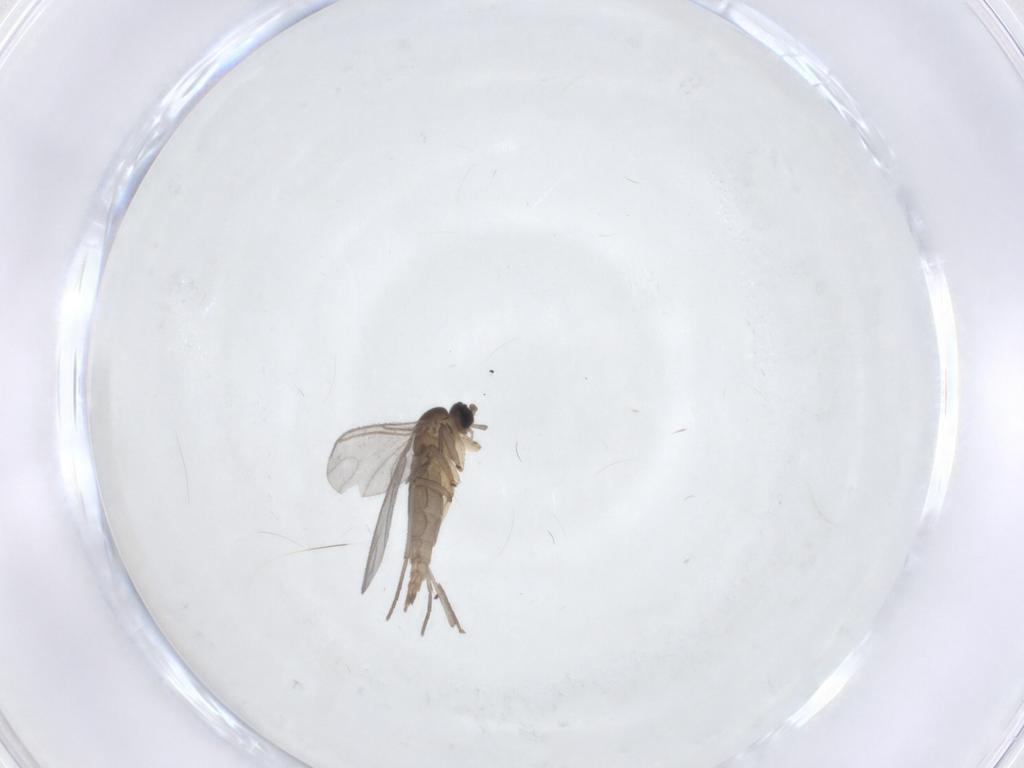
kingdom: Animalia
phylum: Arthropoda
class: Insecta
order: Diptera
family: Sciaridae
